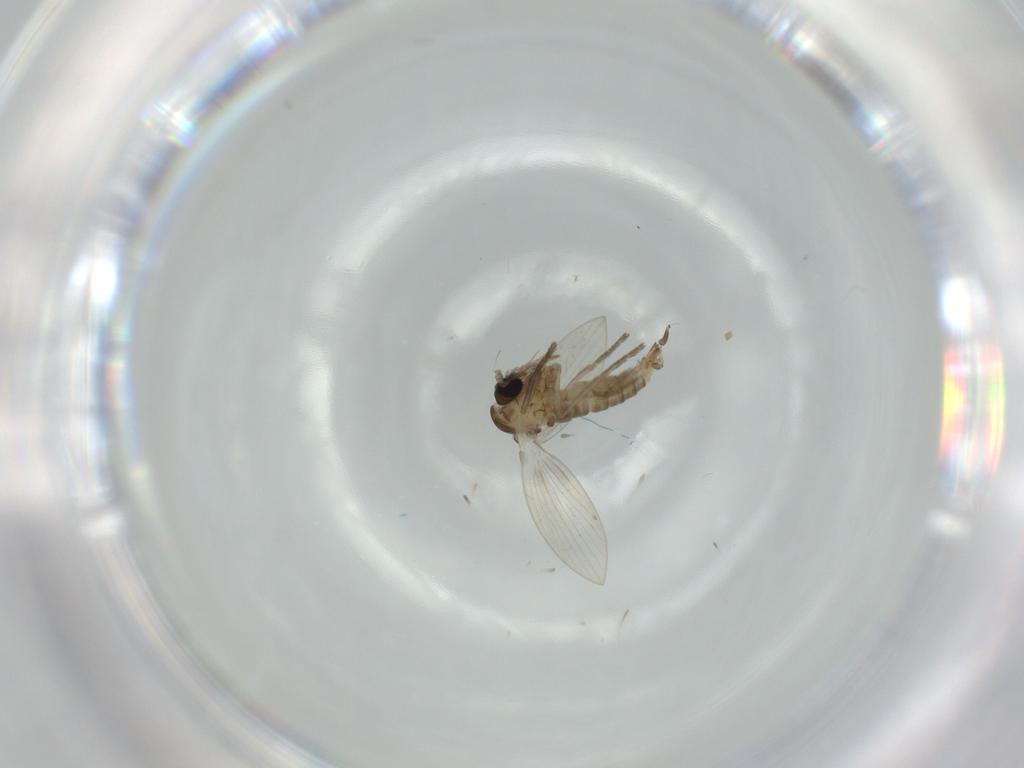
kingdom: Animalia
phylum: Arthropoda
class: Insecta
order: Diptera
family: Psychodidae
